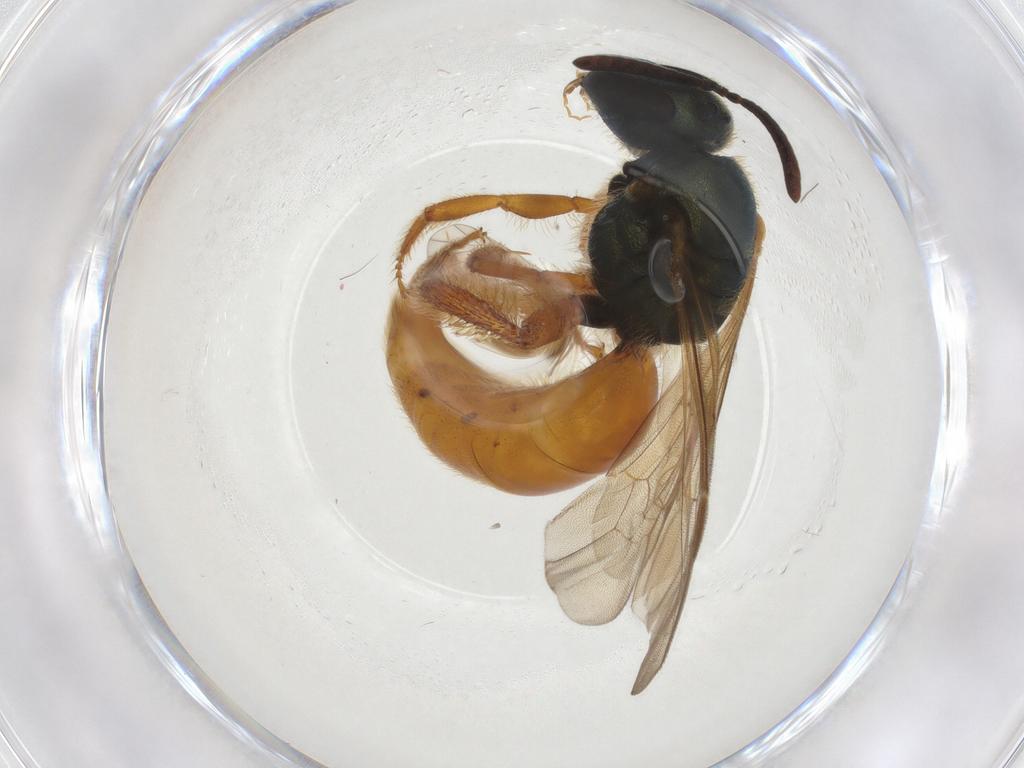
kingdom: Animalia
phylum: Arthropoda
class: Insecta
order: Hymenoptera
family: Halictidae
